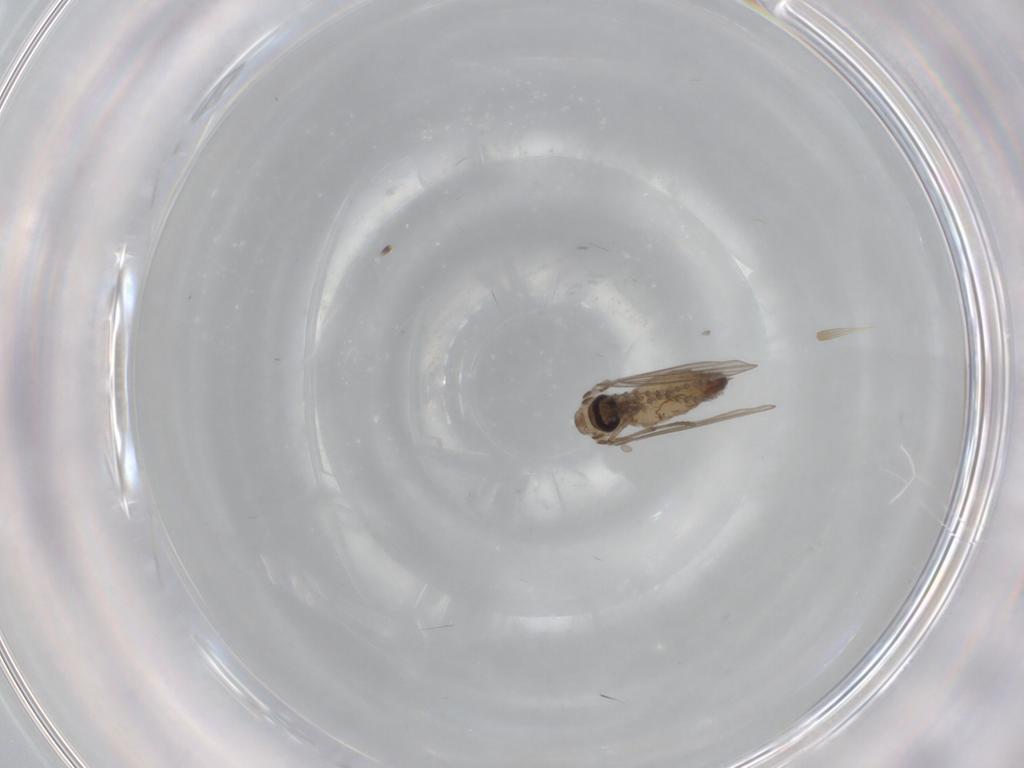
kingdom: Animalia
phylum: Arthropoda
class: Insecta
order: Diptera
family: Psychodidae
